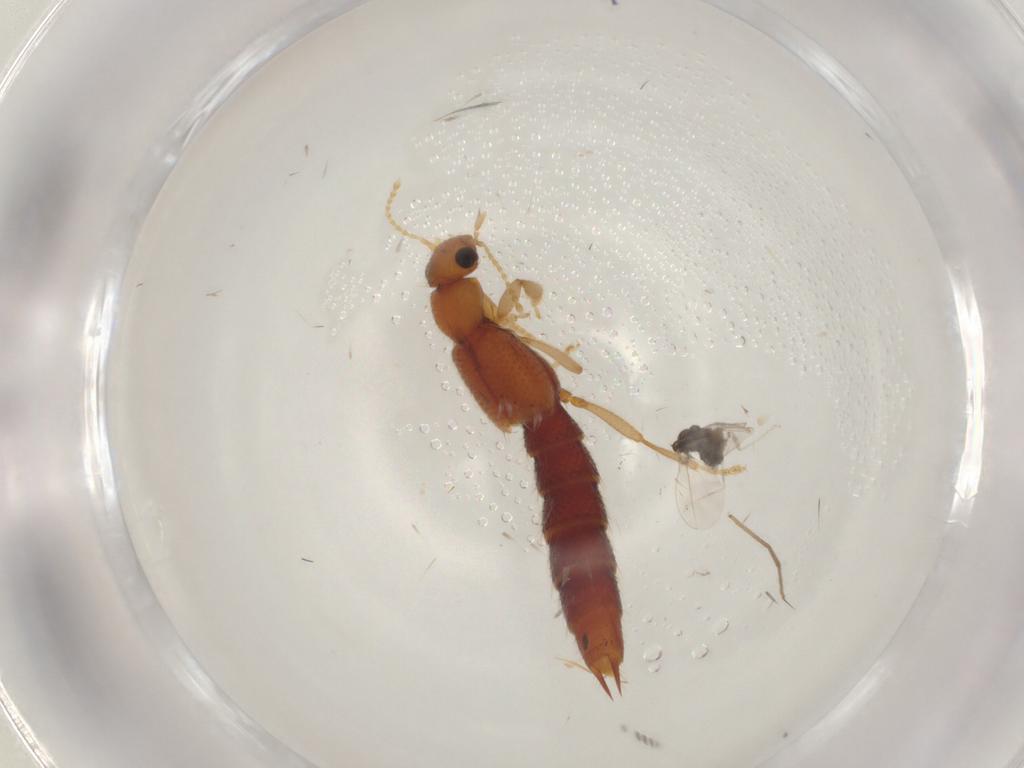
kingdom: Animalia
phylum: Arthropoda
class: Insecta
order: Coleoptera
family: Staphylinidae
